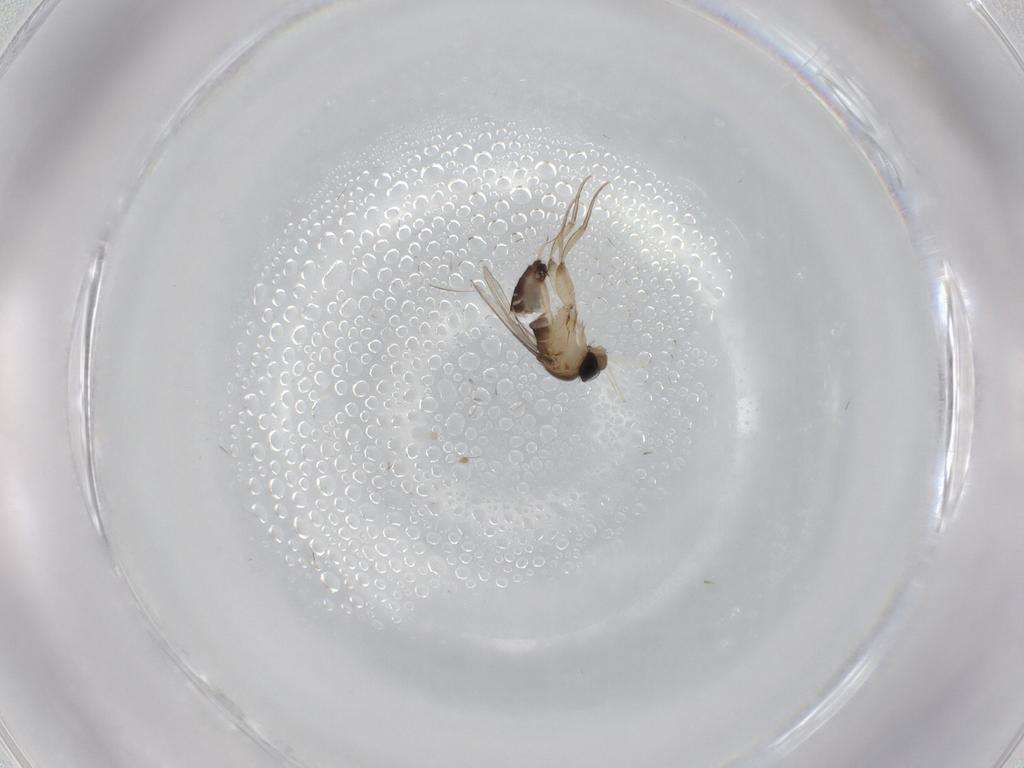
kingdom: Animalia
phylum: Arthropoda
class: Insecta
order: Diptera
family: Phoridae
